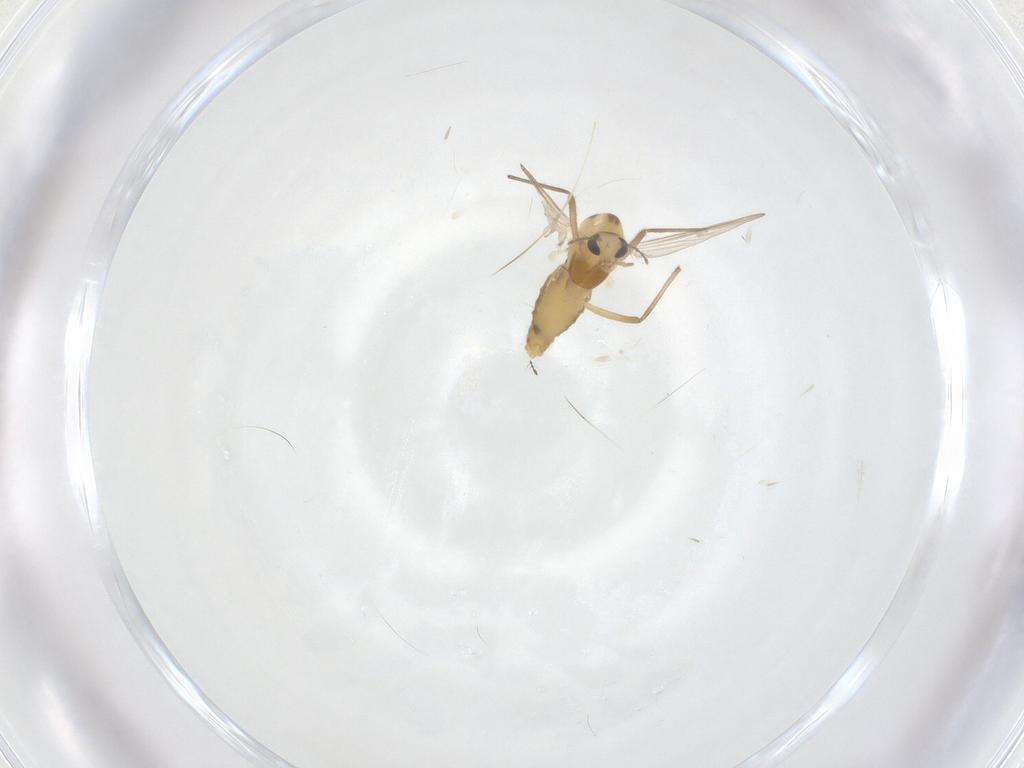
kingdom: Animalia
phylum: Arthropoda
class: Insecta
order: Diptera
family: Chironomidae
